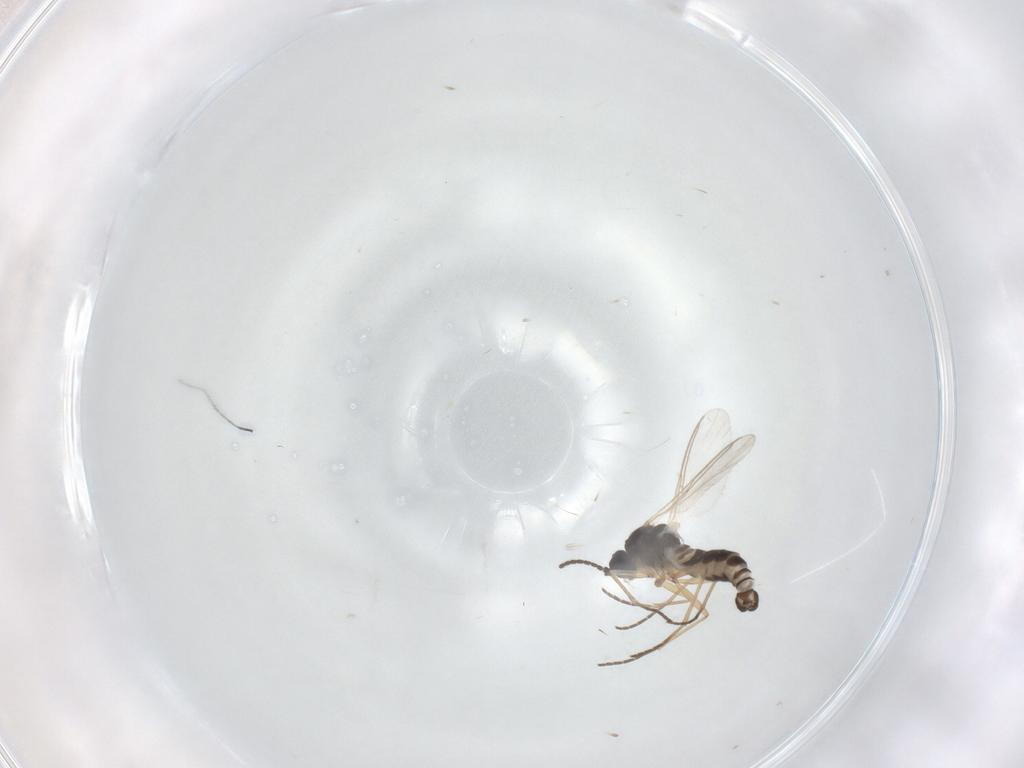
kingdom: Animalia
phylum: Arthropoda
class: Insecta
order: Diptera
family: Sciaridae
